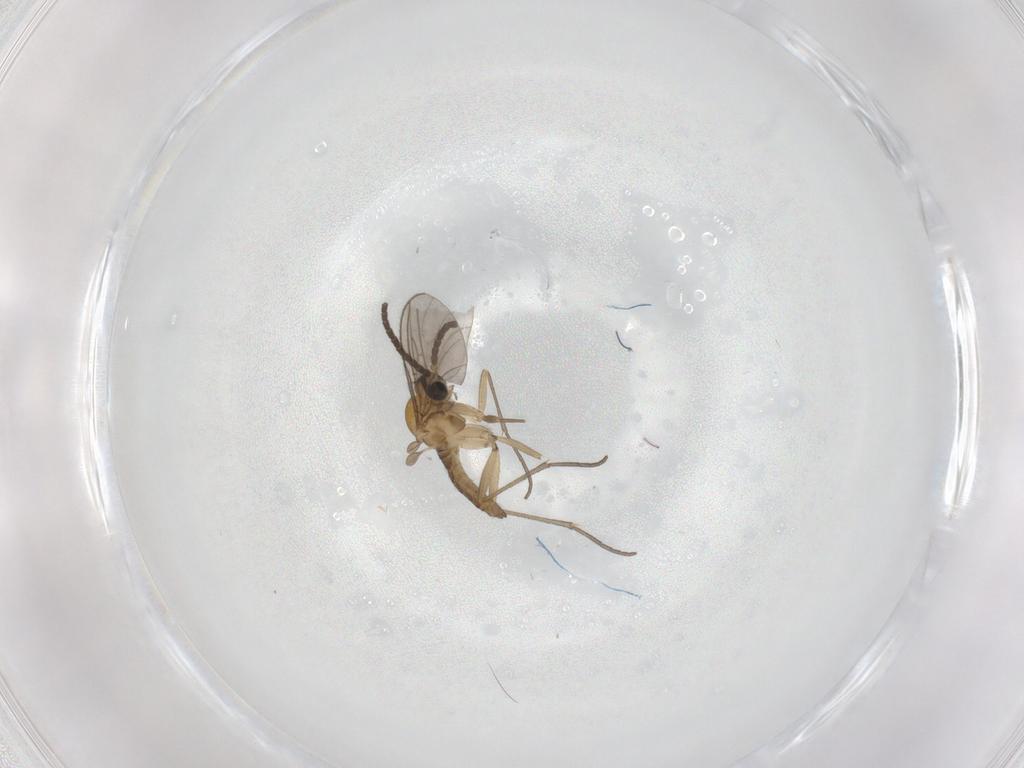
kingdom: Animalia
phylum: Arthropoda
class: Insecta
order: Diptera
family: Sciaridae
